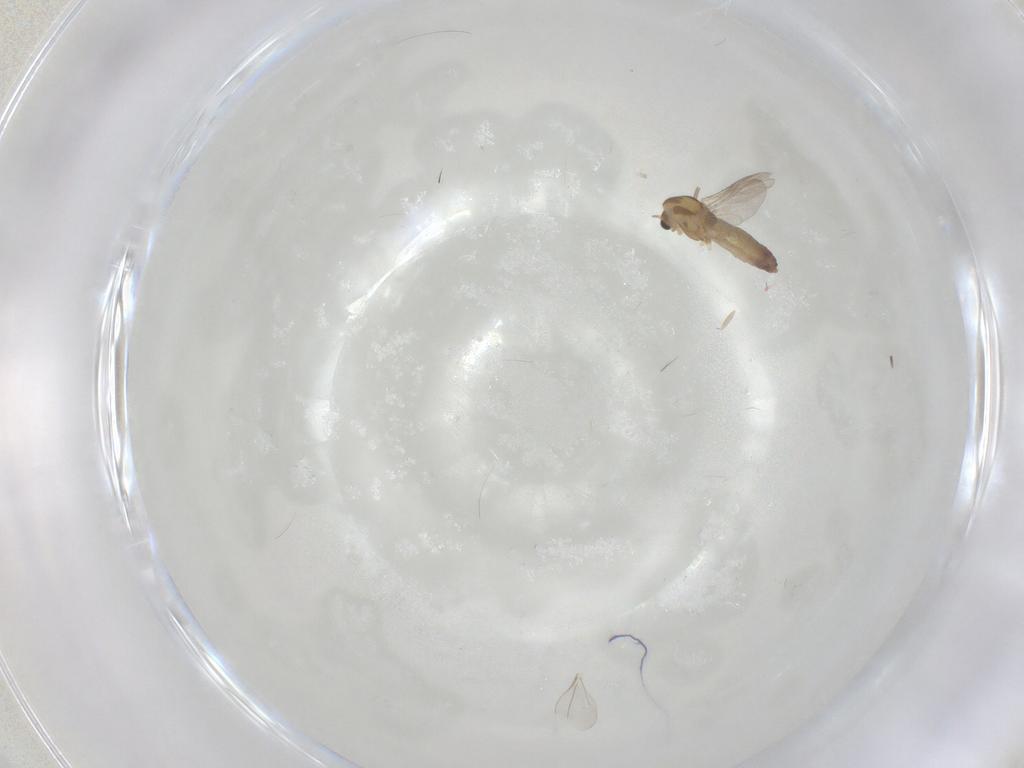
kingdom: Animalia
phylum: Arthropoda
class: Insecta
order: Diptera
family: Chironomidae
